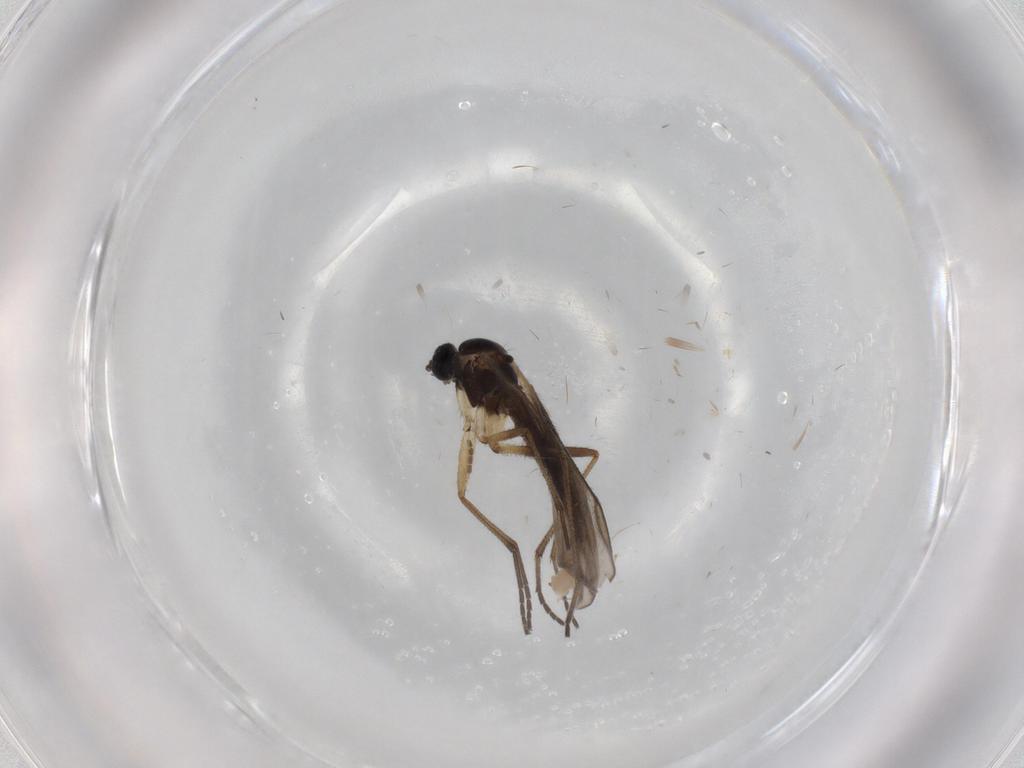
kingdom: Animalia
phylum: Arthropoda
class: Insecta
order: Diptera
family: Sciaridae
